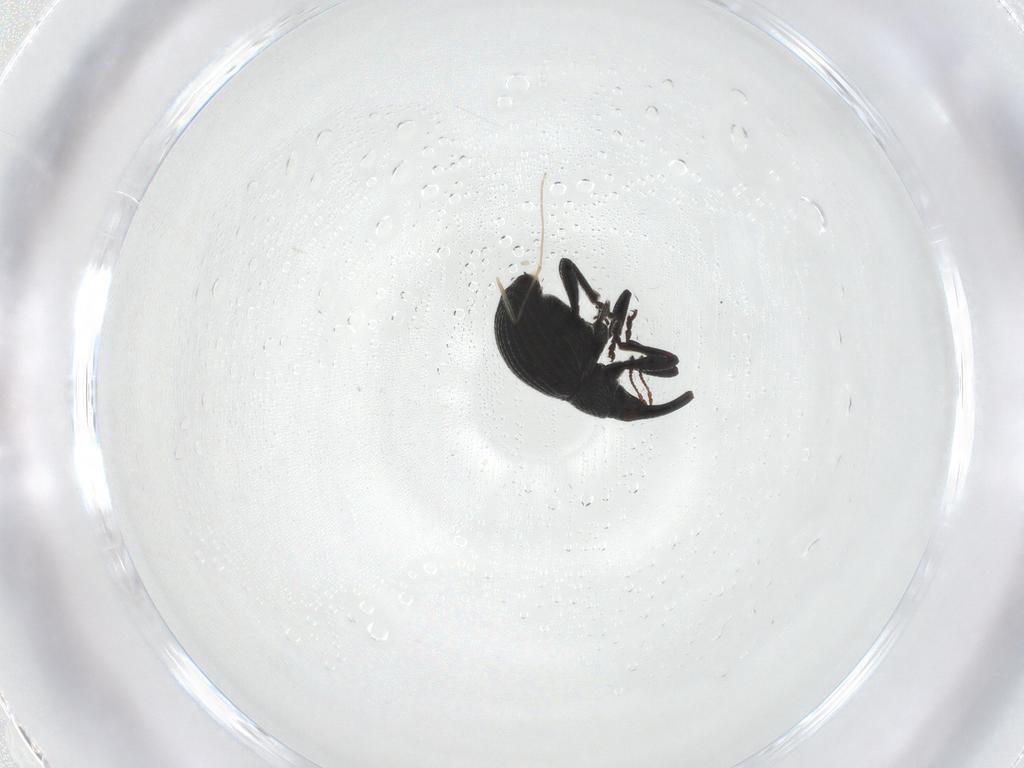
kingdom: Animalia
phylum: Arthropoda
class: Insecta
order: Coleoptera
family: Brentidae
